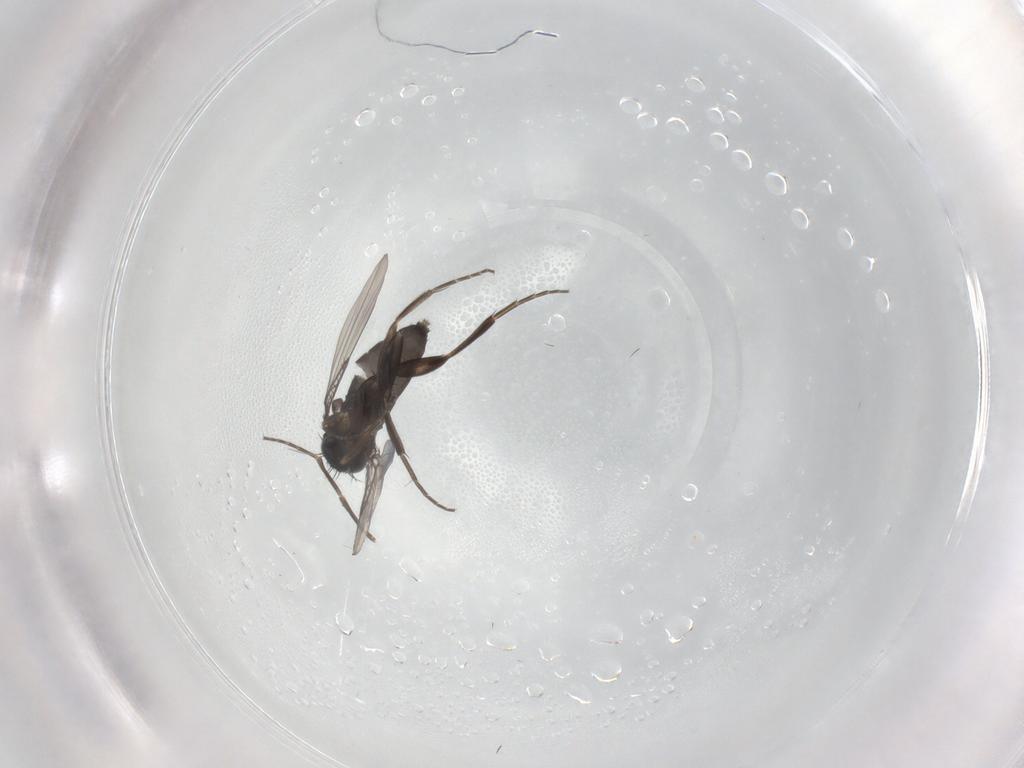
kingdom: Animalia
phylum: Arthropoda
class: Insecta
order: Diptera
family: Phoridae
